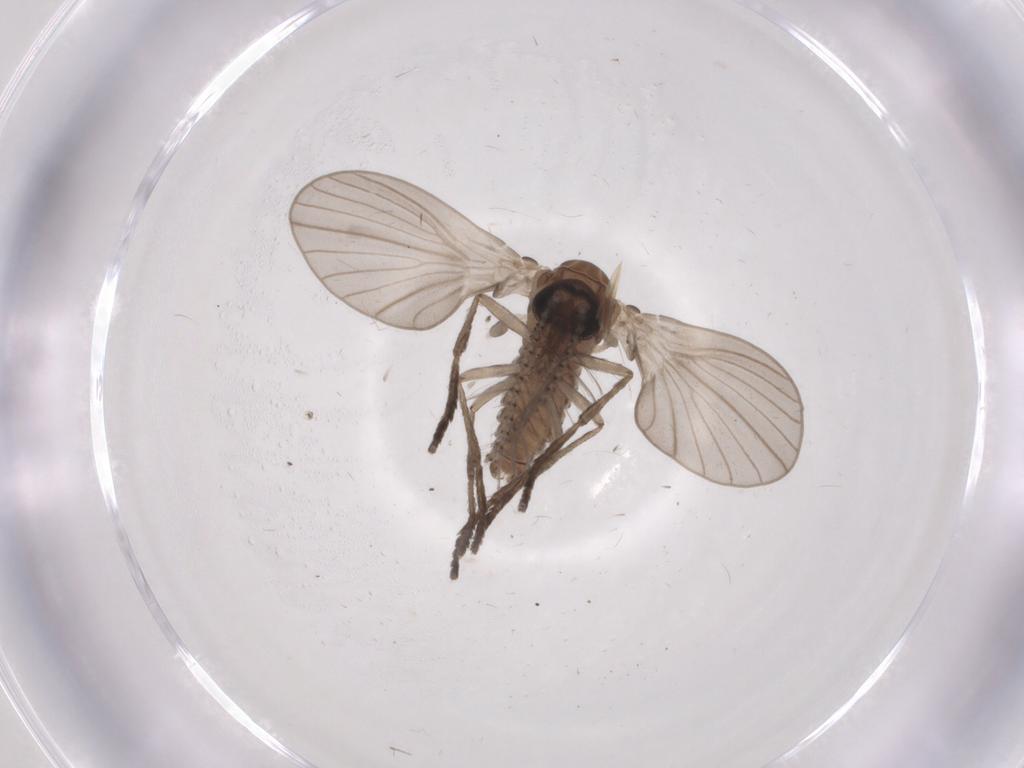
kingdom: Animalia
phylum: Arthropoda
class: Insecta
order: Diptera
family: Psychodidae
